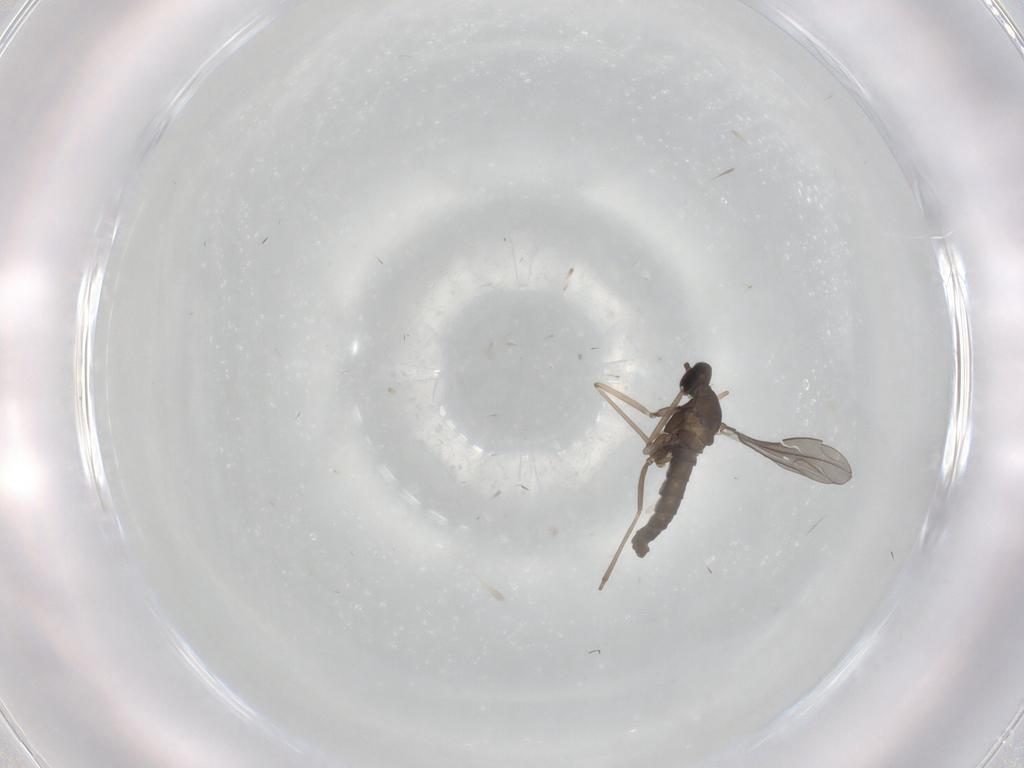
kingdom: Animalia
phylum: Arthropoda
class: Insecta
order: Diptera
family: Cecidomyiidae
